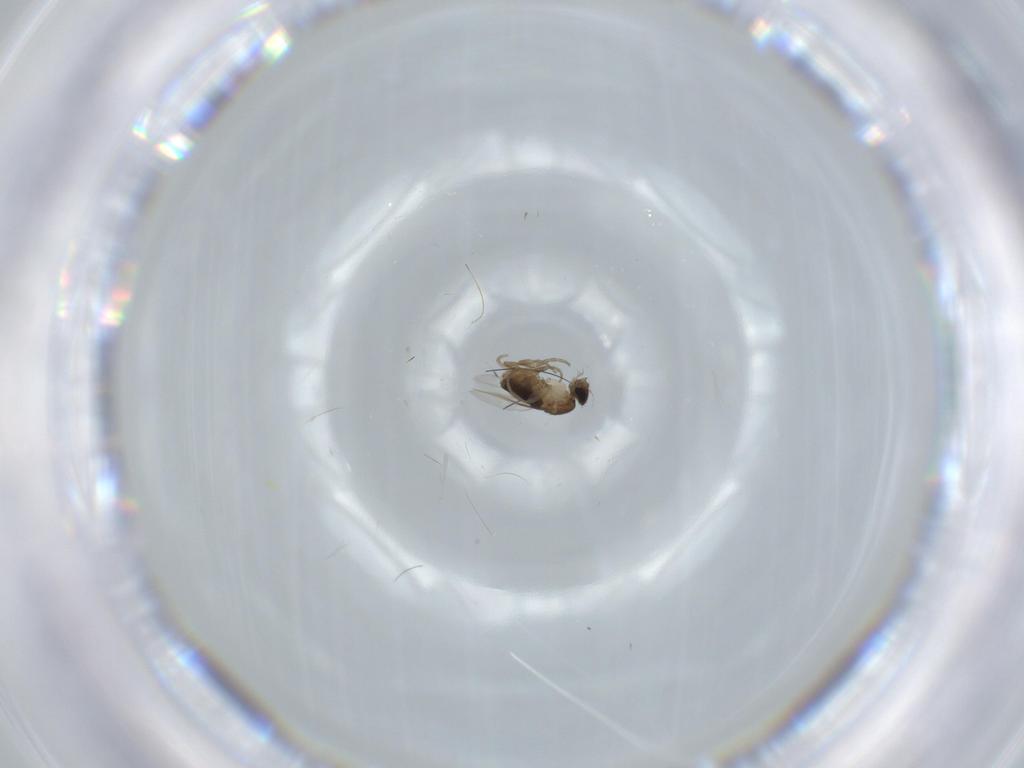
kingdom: Animalia
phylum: Arthropoda
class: Insecta
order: Diptera
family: Phoridae
